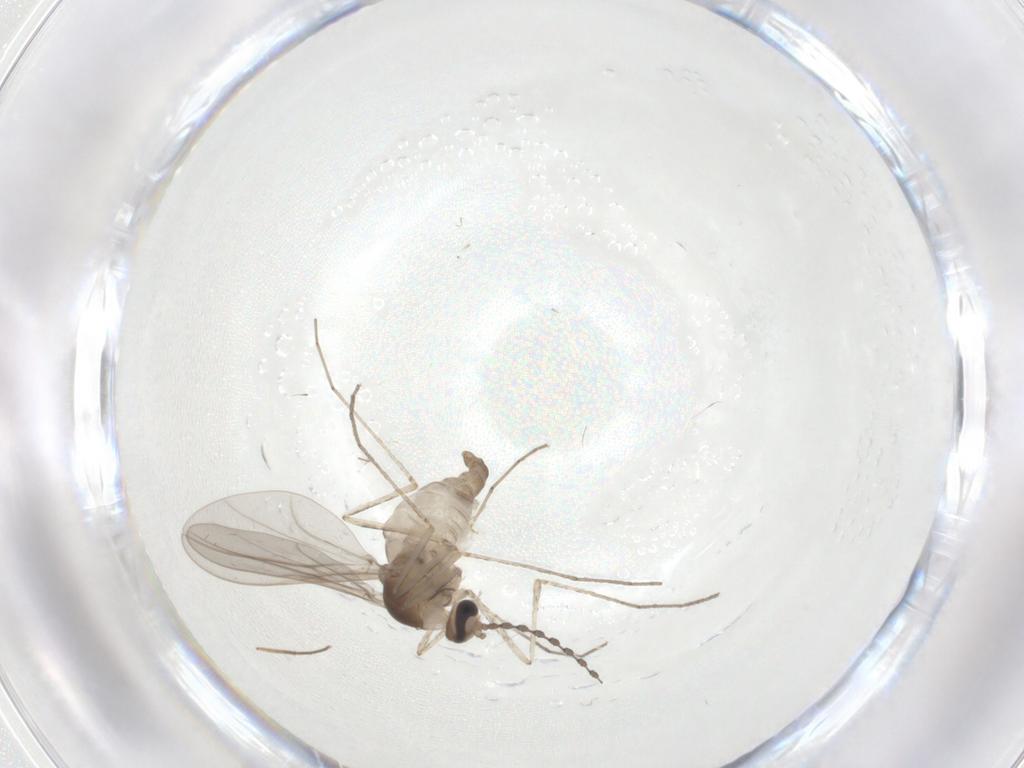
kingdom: Animalia
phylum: Arthropoda
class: Insecta
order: Diptera
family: Chironomidae
